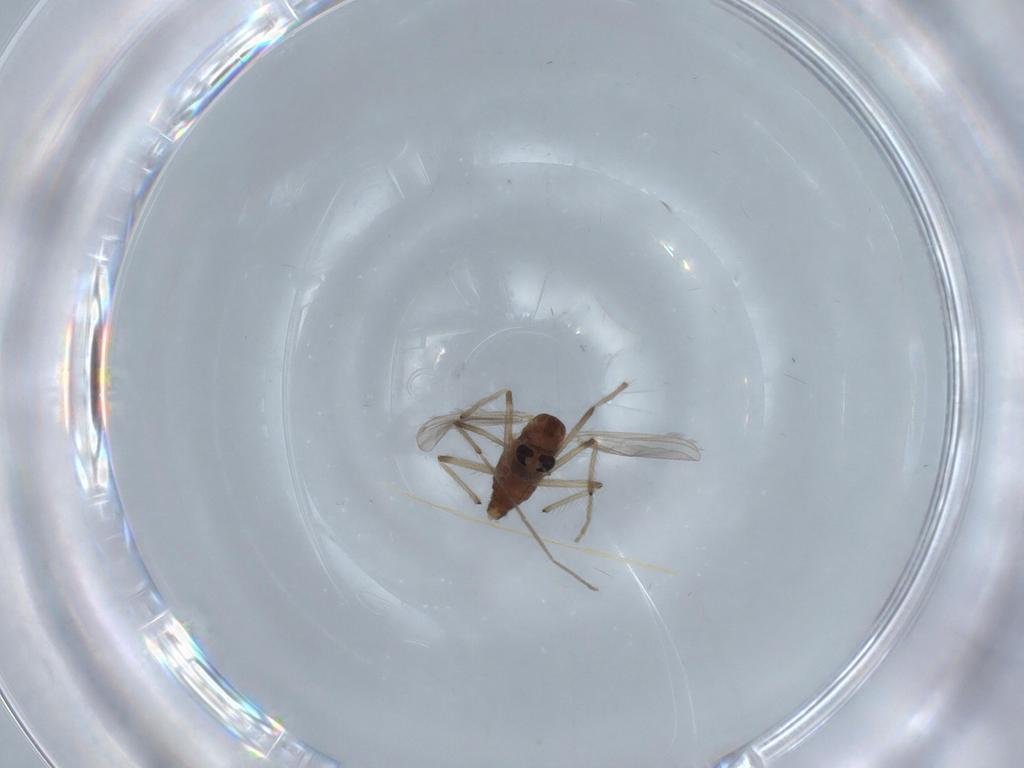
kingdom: Animalia
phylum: Arthropoda
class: Insecta
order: Diptera
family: Chironomidae
